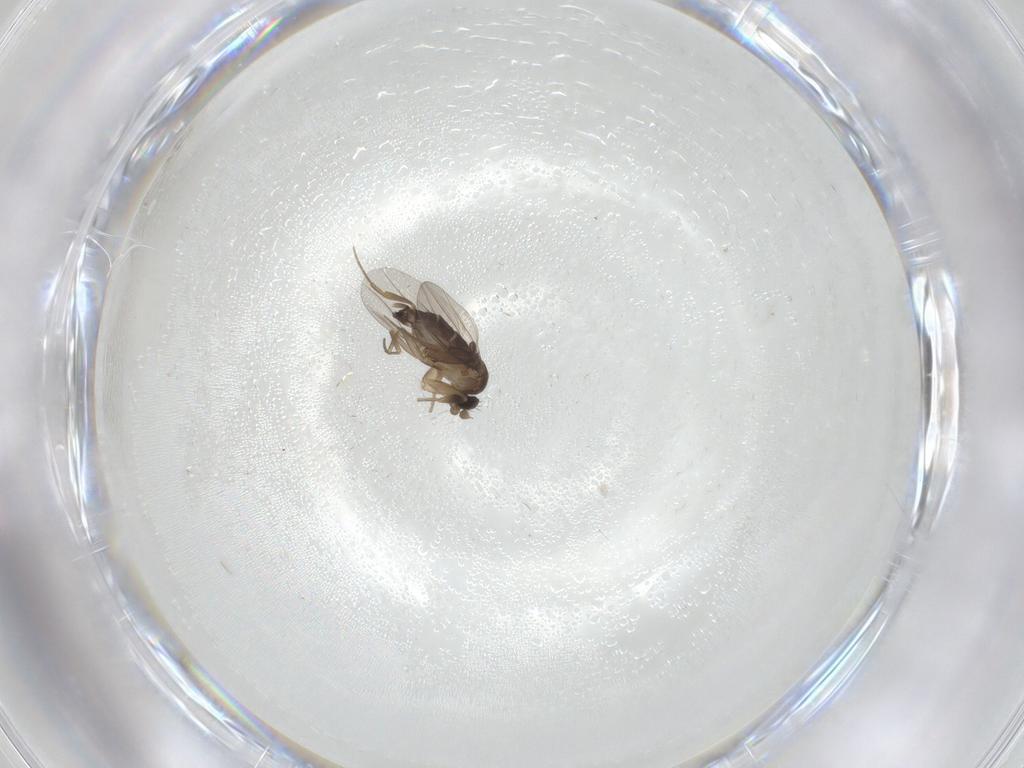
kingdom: Animalia
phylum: Arthropoda
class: Insecta
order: Diptera
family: Phoridae
